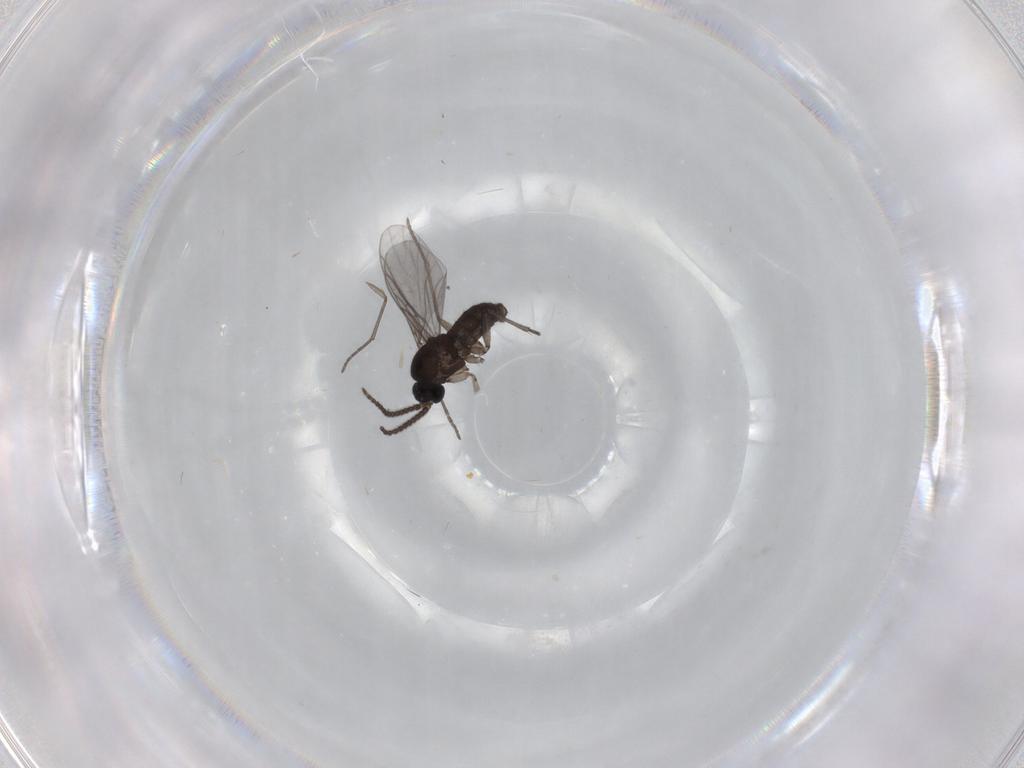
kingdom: Animalia
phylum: Arthropoda
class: Insecta
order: Diptera
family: Sciaridae
